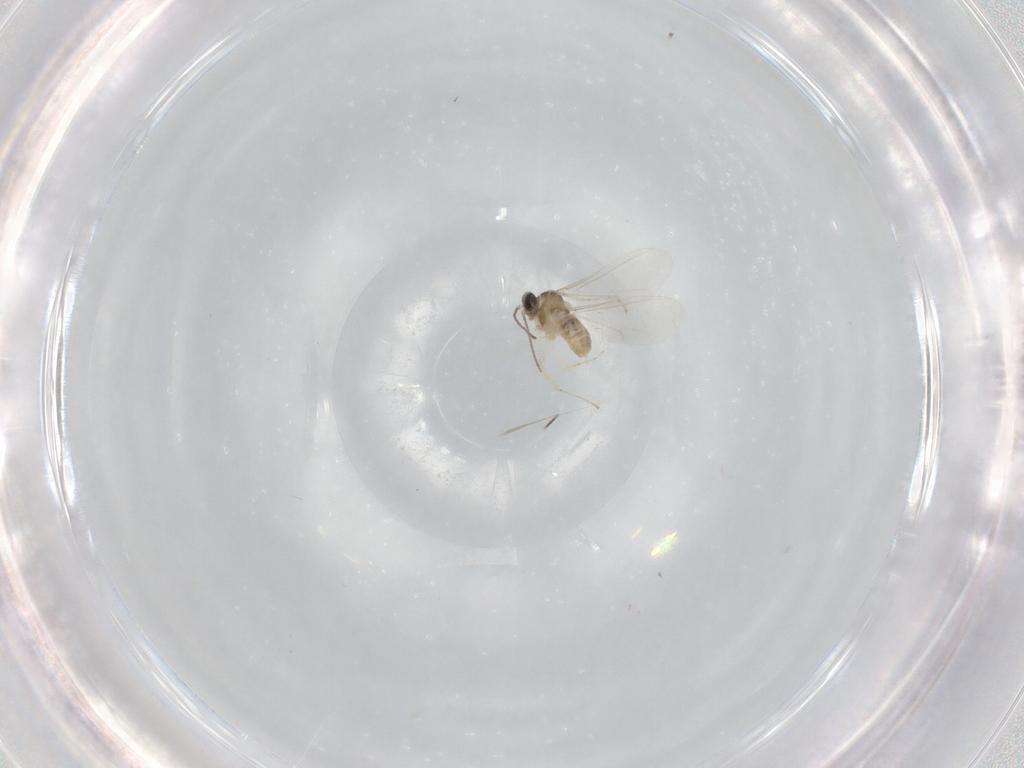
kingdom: Animalia
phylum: Arthropoda
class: Insecta
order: Diptera
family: Cecidomyiidae
